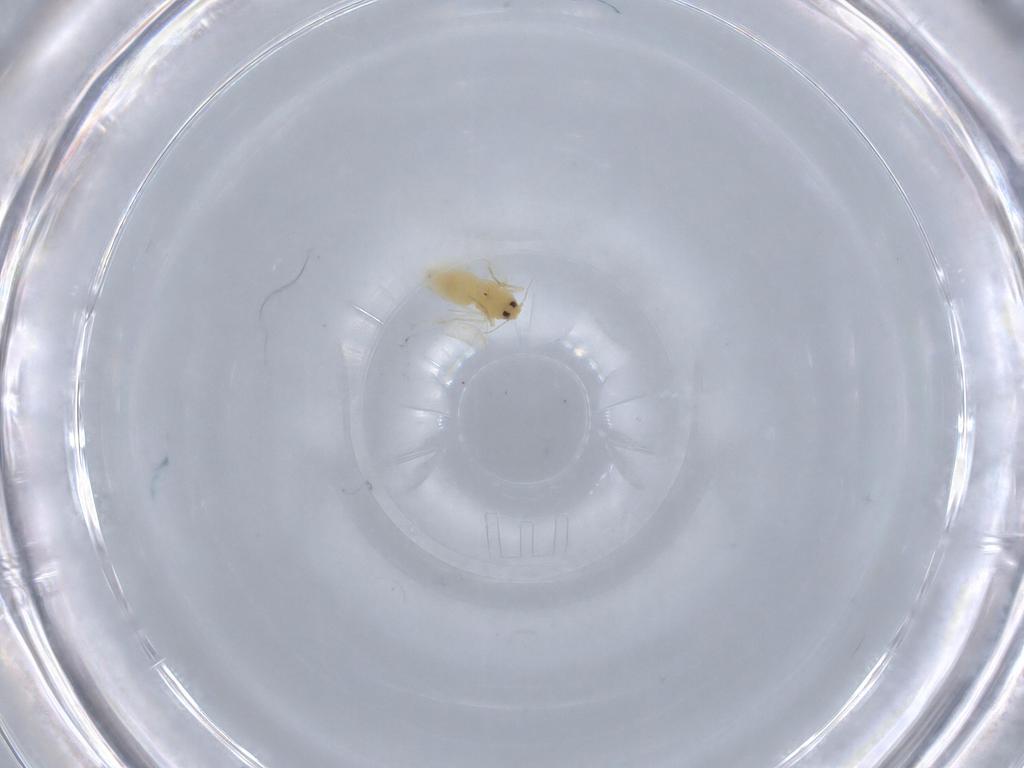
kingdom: Animalia
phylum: Arthropoda
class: Insecta
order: Hemiptera
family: Aleyrodidae
